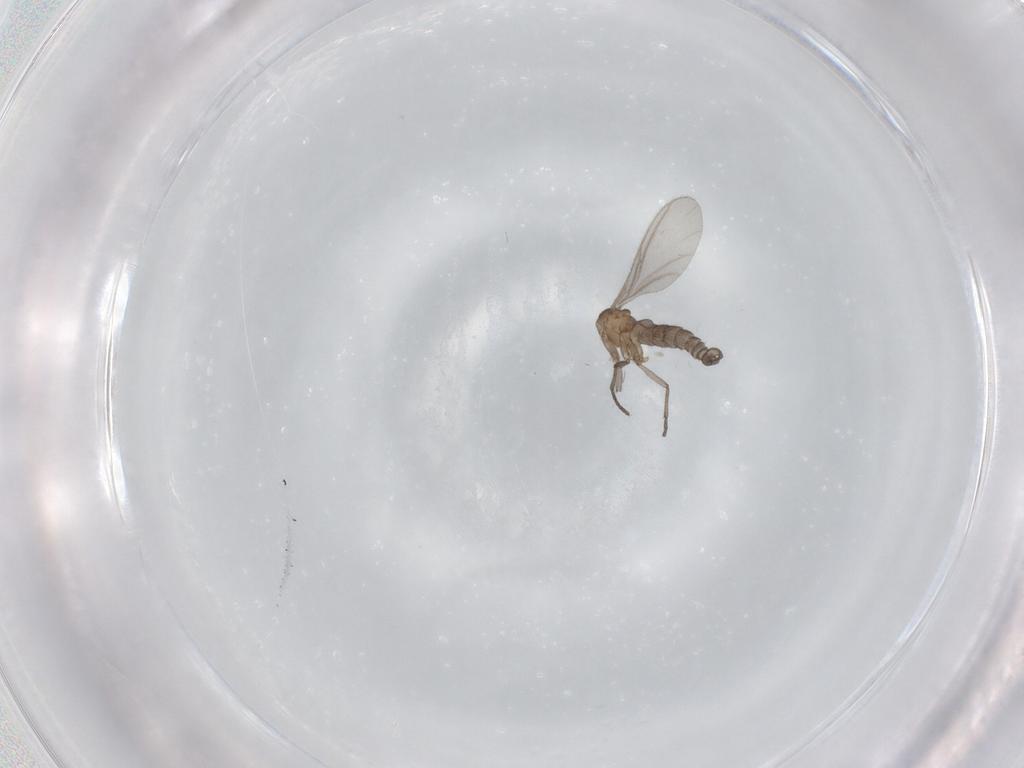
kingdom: Animalia
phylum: Arthropoda
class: Insecta
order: Diptera
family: Sciaridae
